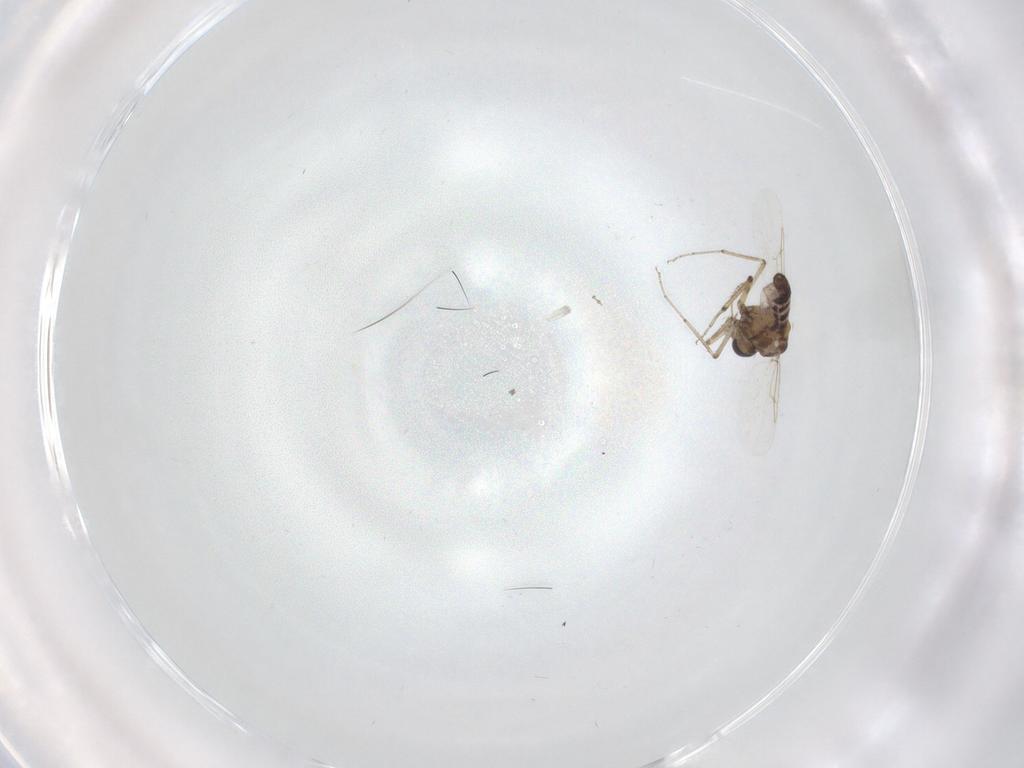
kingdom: Animalia
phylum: Arthropoda
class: Insecta
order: Diptera
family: Ceratopogonidae
